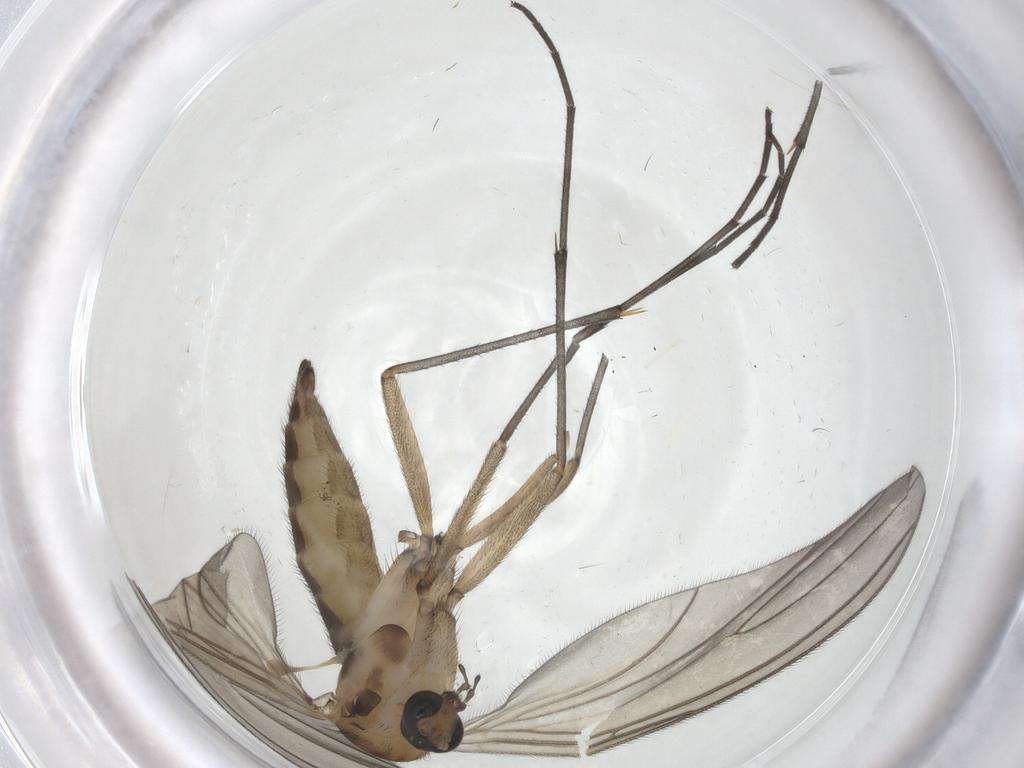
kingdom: Animalia
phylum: Arthropoda
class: Insecta
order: Diptera
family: Sciaridae
